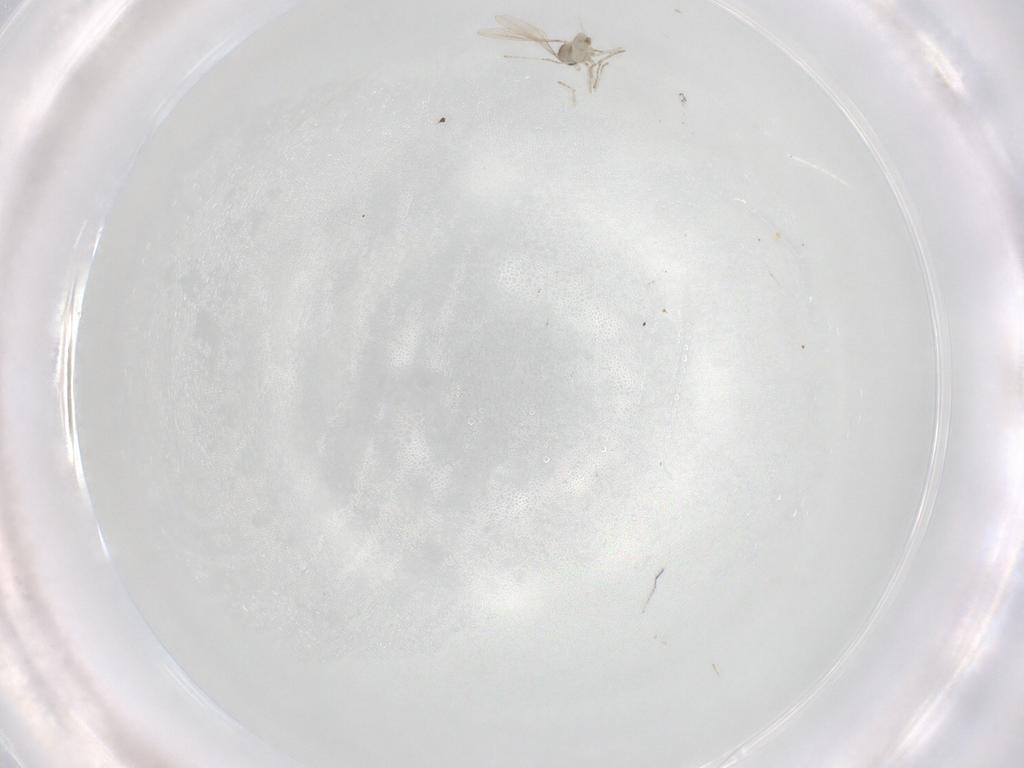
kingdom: Animalia
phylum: Arthropoda
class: Insecta
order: Diptera
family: Cecidomyiidae
